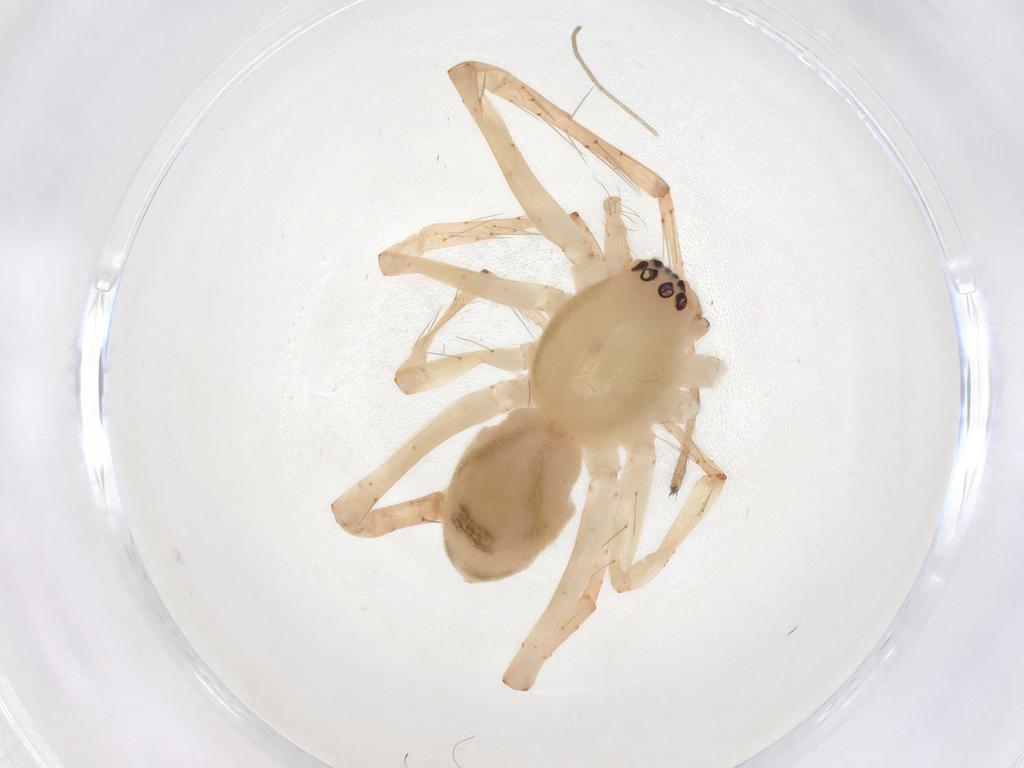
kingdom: Animalia
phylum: Arthropoda
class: Arachnida
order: Araneae
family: Anyphaenidae
